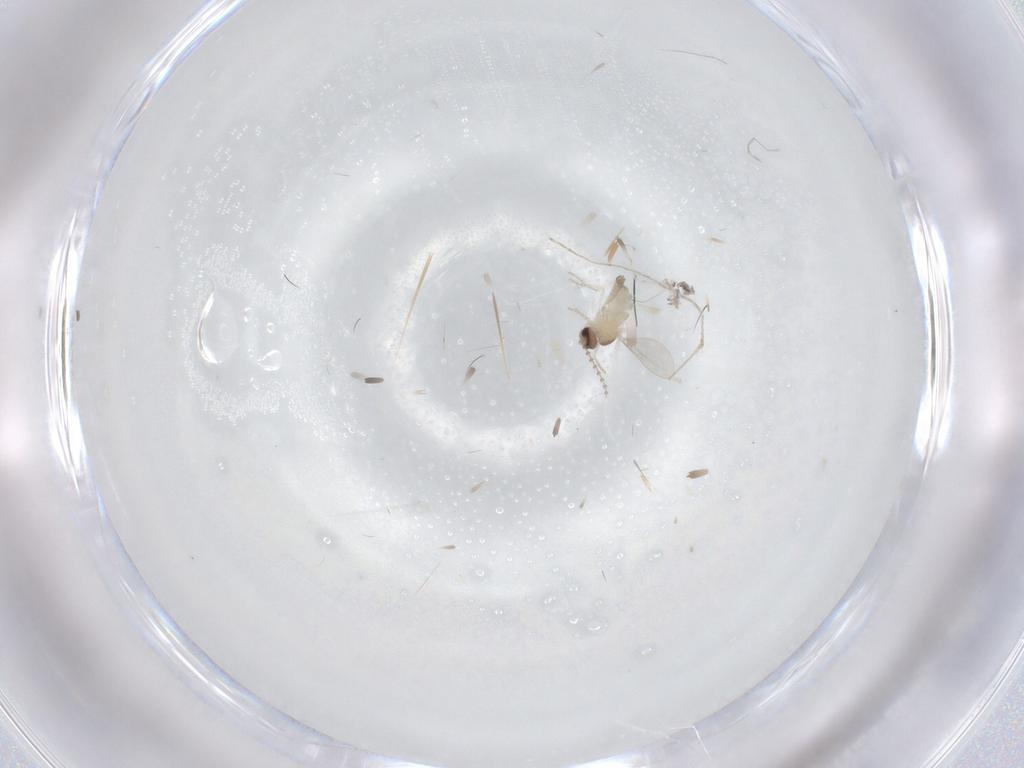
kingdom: Animalia
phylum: Arthropoda
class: Insecta
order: Diptera
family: Cecidomyiidae
